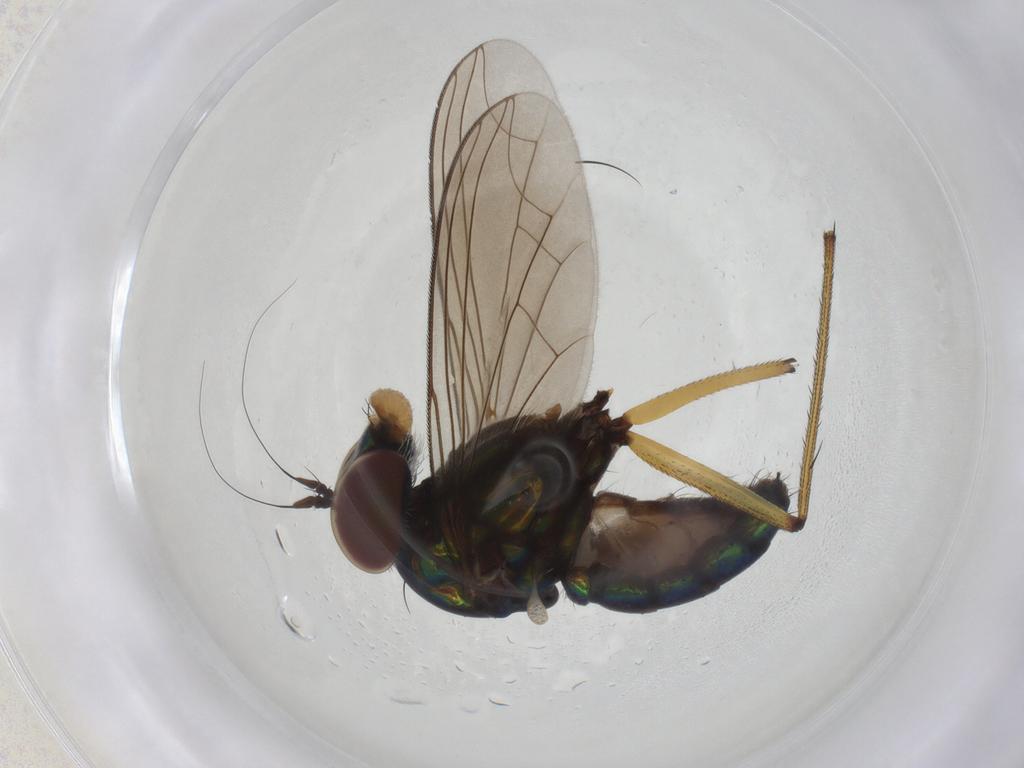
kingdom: Animalia
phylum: Arthropoda
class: Insecta
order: Diptera
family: Dolichopodidae
